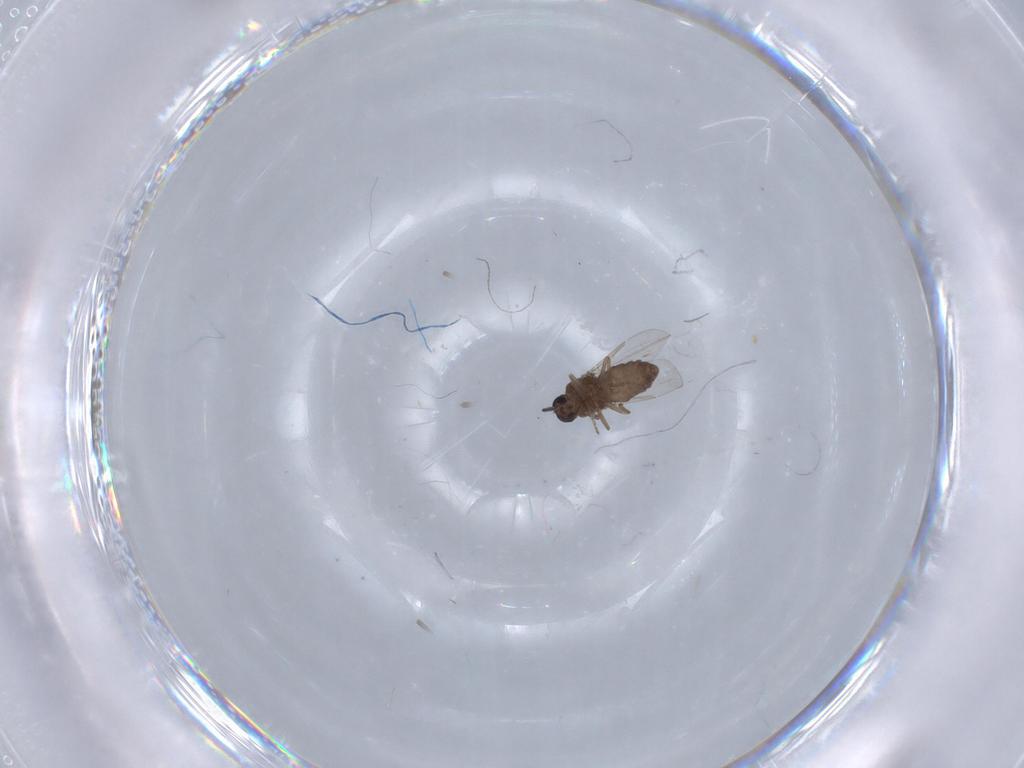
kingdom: Animalia
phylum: Arthropoda
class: Insecta
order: Diptera
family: Ceratopogonidae
